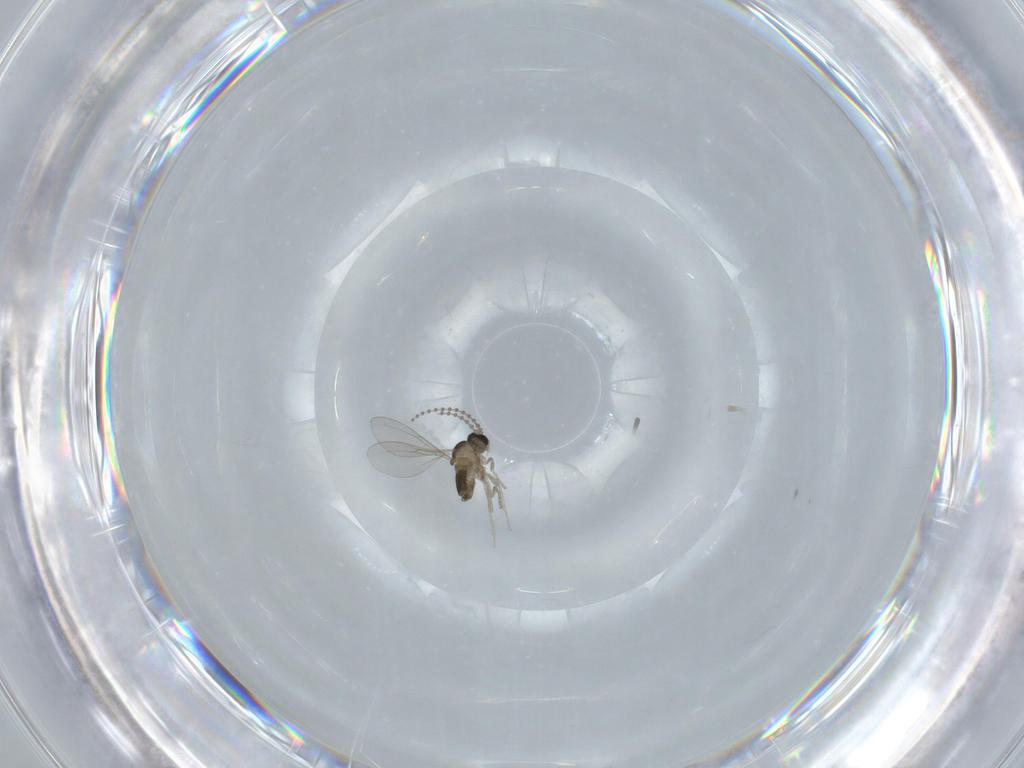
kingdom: Animalia
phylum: Arthropoda
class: Insecta
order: Diptera
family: Cecidomyiidae
